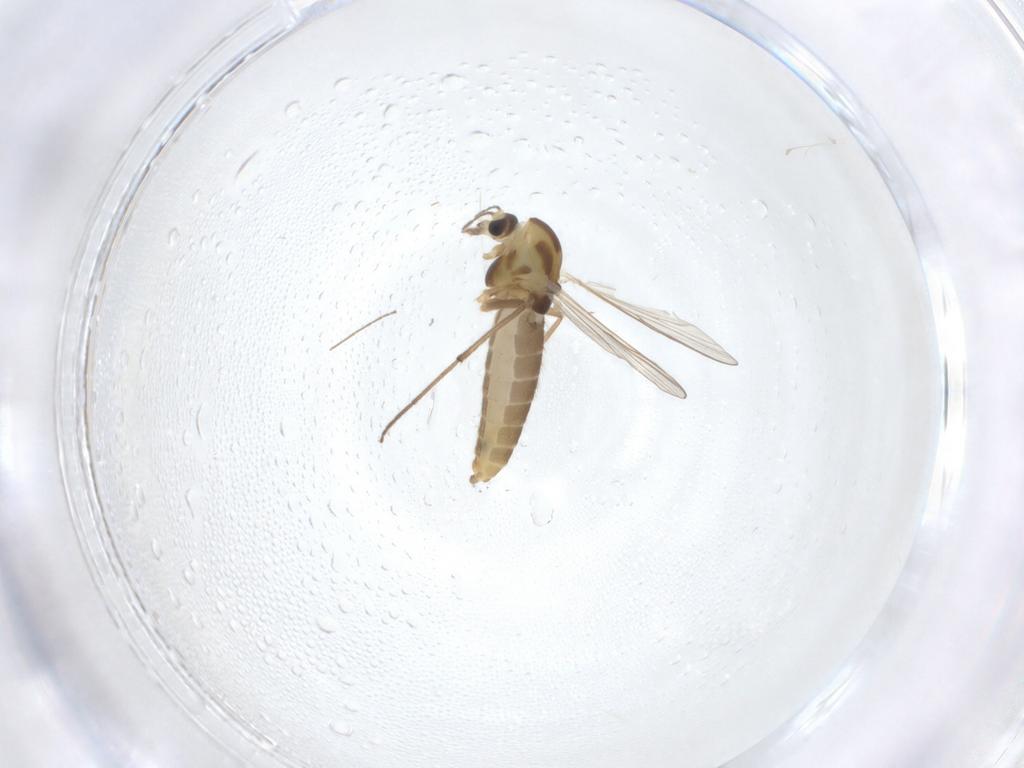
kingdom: Animalia
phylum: Arthropoda
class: Insecta
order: Diptera
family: Chironomidae
